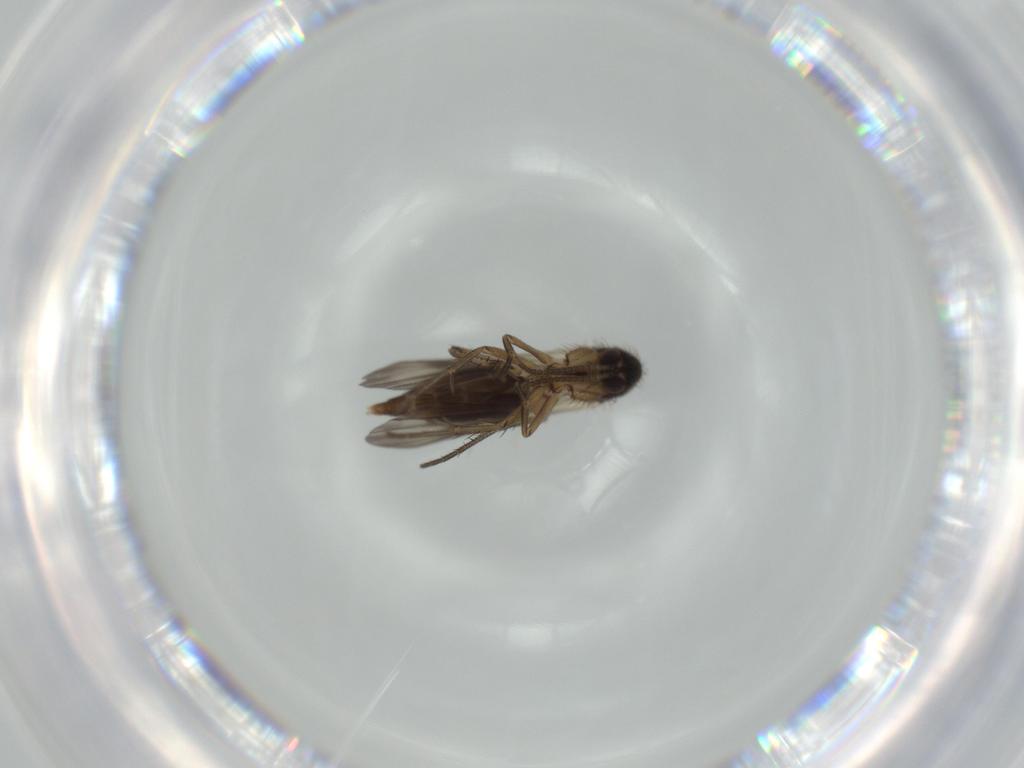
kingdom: Animalia
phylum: Arthropoda
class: Insecta
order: Diptera
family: Phoridae
